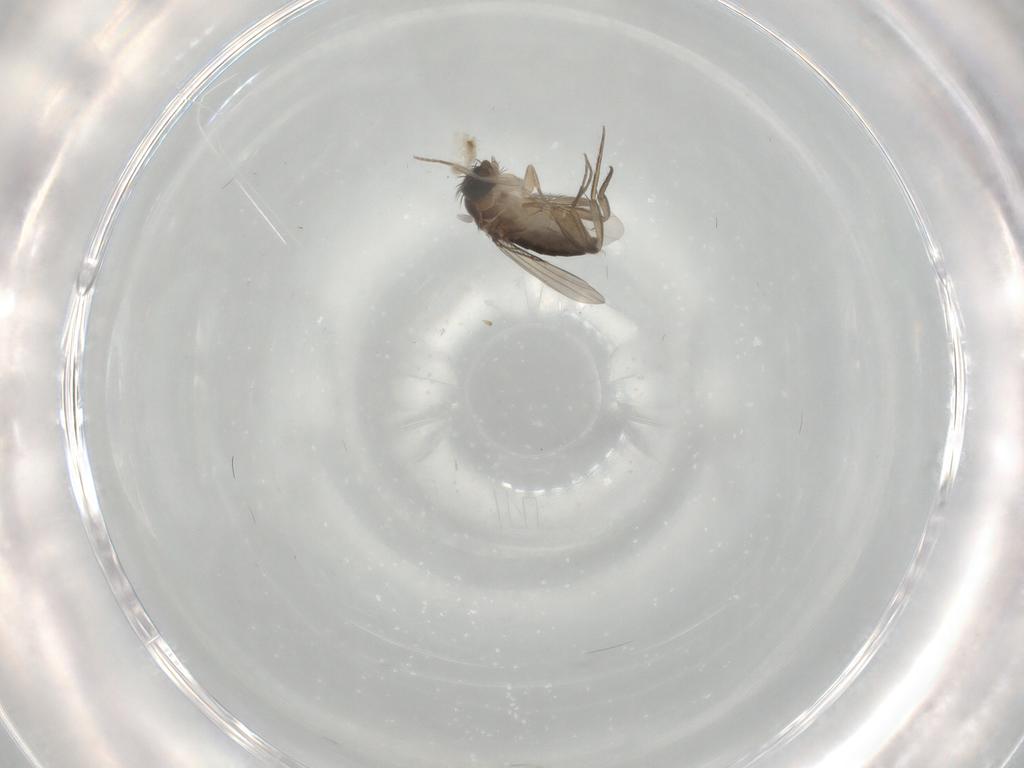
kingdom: Animalia
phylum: Arthropoda
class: Insecta
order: Diptera
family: Phoridae
